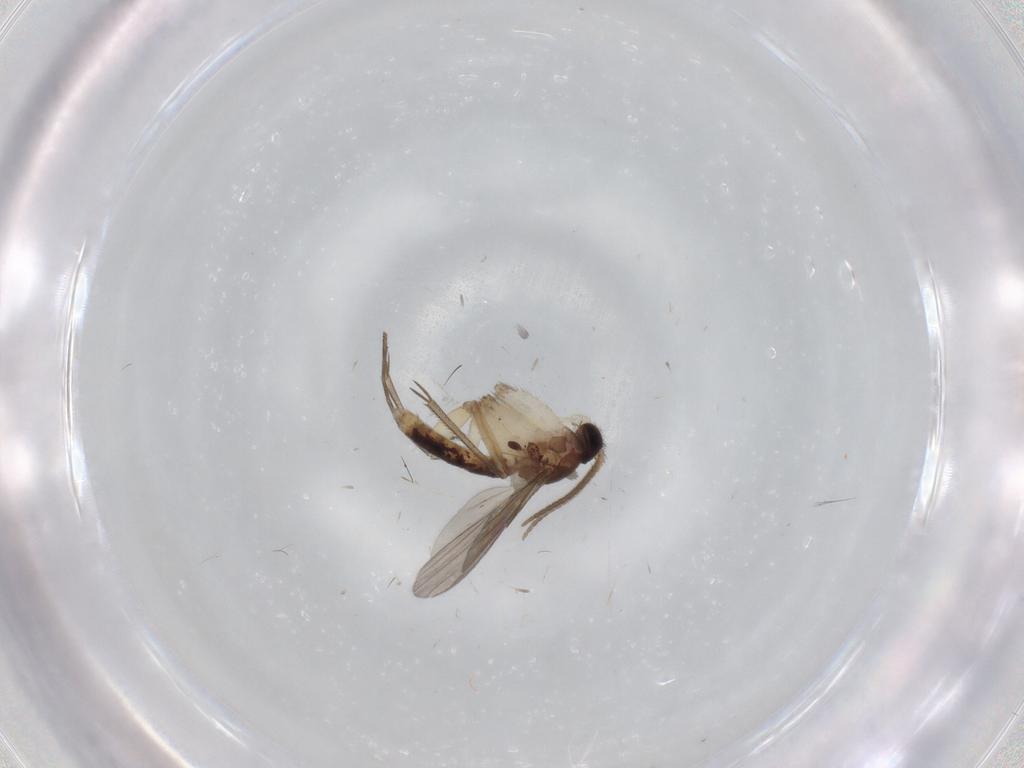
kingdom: Animalia
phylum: Arthropoda
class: Insecta
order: Diptera
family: Mycetophilidae
